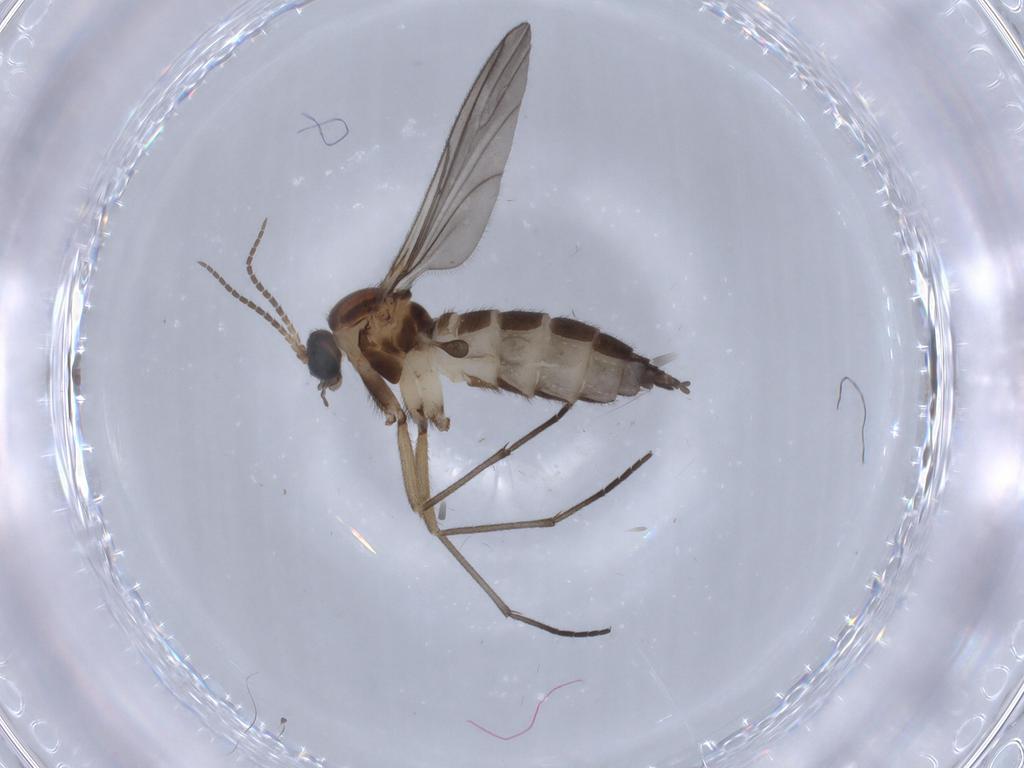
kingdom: Animalia
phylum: Arthropoda
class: Insecta
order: Diptera
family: Sciaridae
